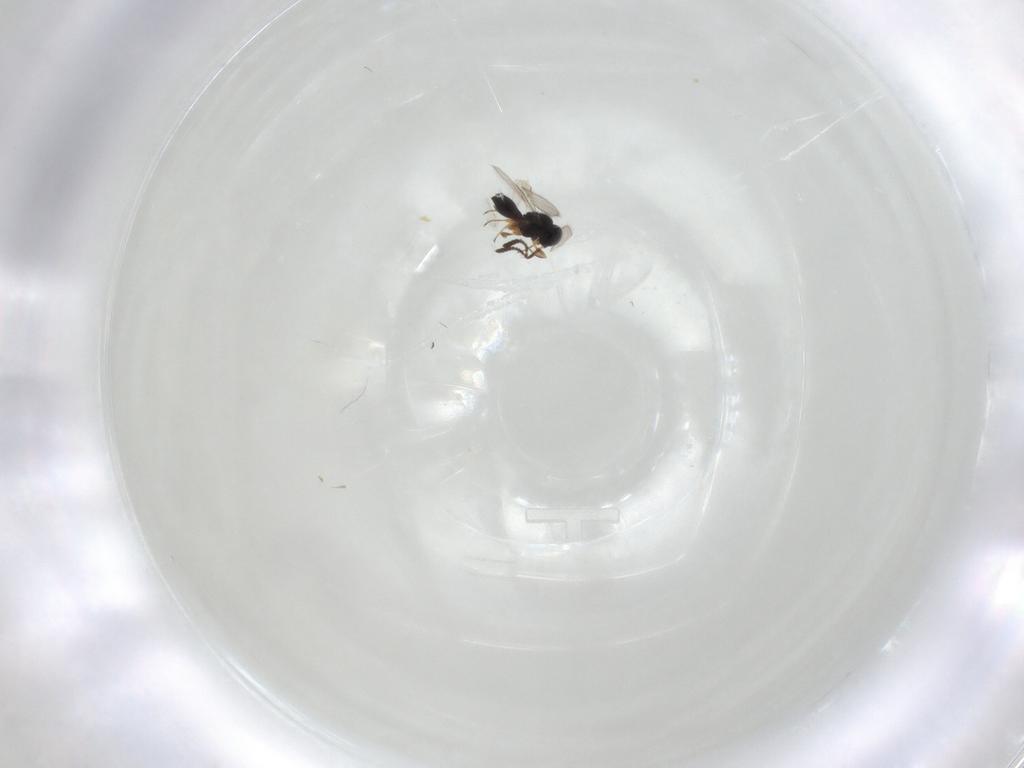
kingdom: Animalia
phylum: Arthropoda
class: Insecta
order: Hymenoptera
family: Scelionidae
